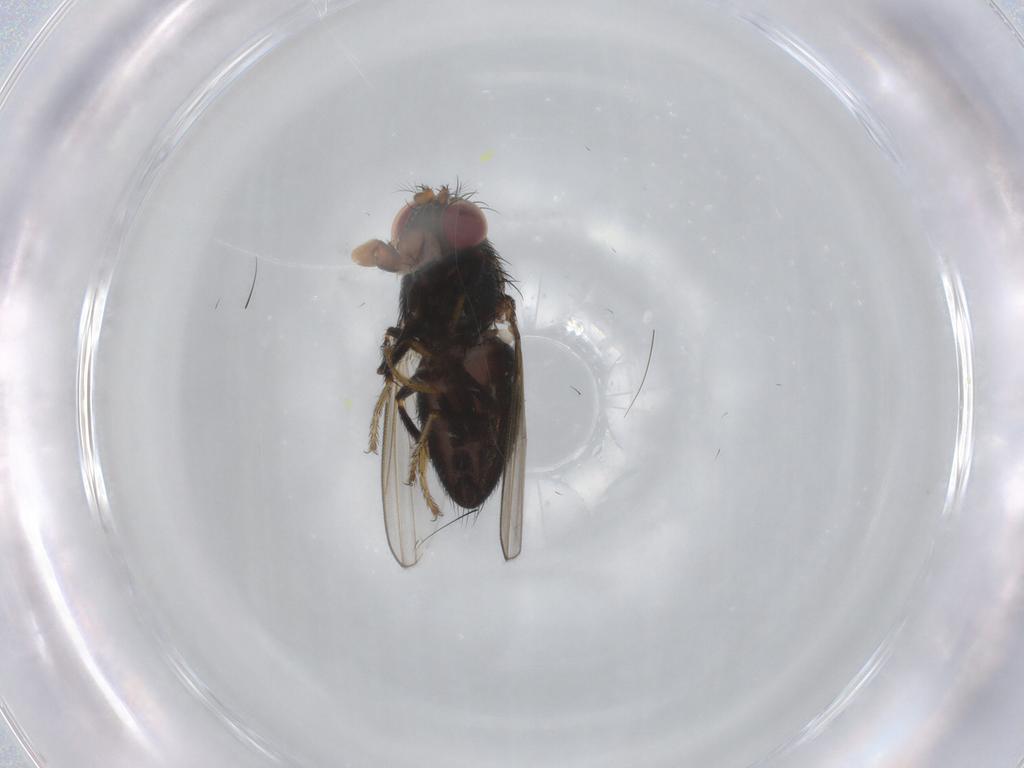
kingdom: Animalia
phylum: Arthropoda
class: Insecta
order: Diptera
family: Ephydridae
